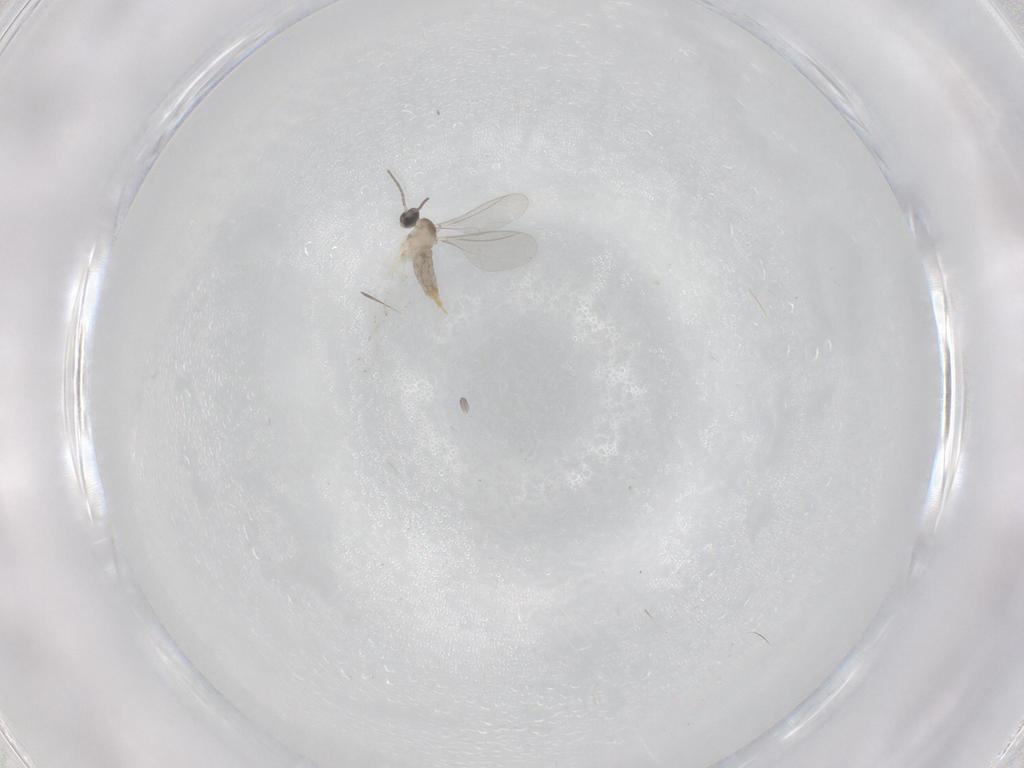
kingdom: Animalia
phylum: Arthropoda
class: Insecta
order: Diptera
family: Cecidomyiidae
